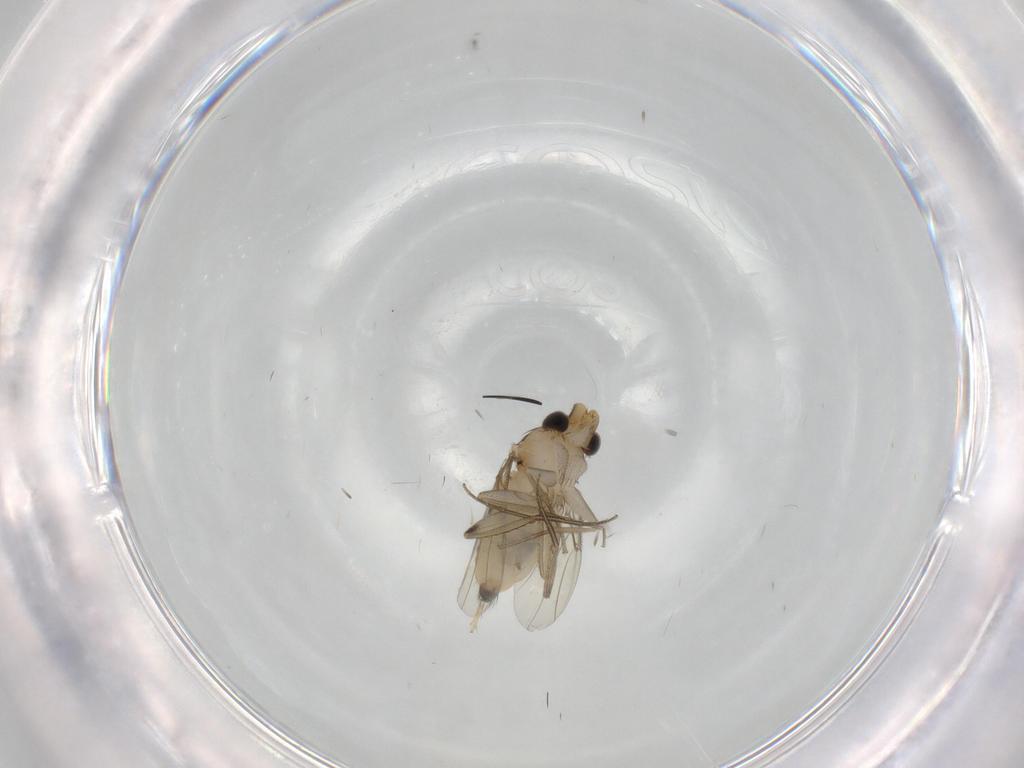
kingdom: Animalia
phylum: Arthropoda
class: Insecta
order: Diptera
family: Phoridae
